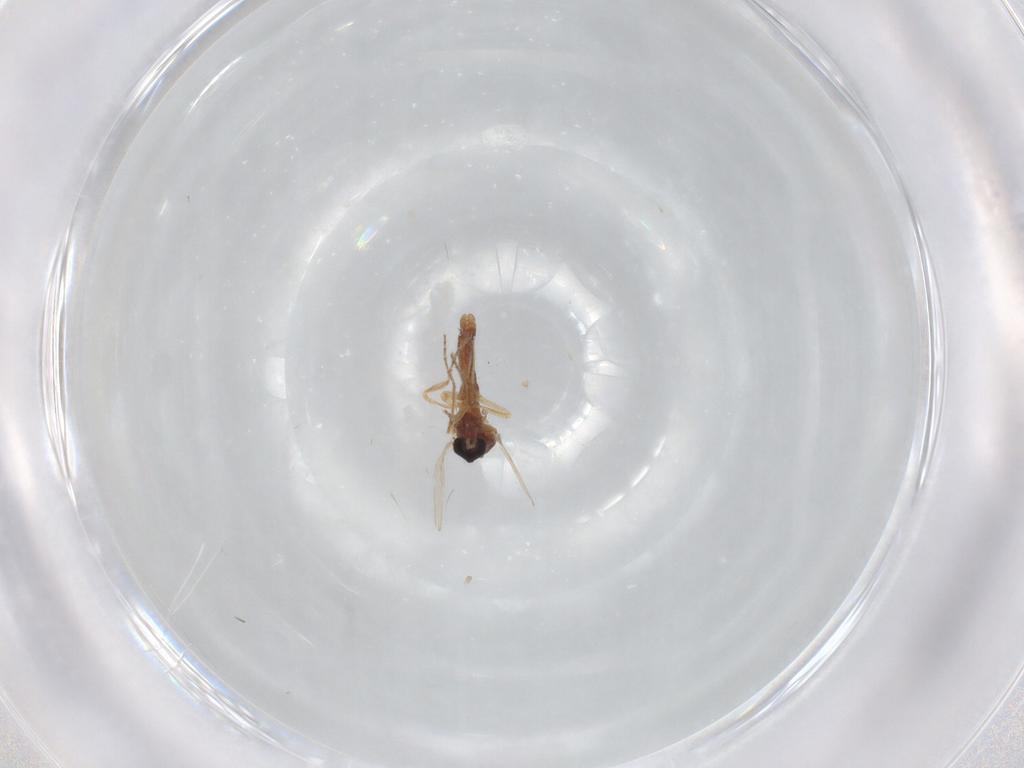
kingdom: Animalia
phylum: Arthropoda
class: Insecta
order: Diptera
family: Ceratopogonidae
